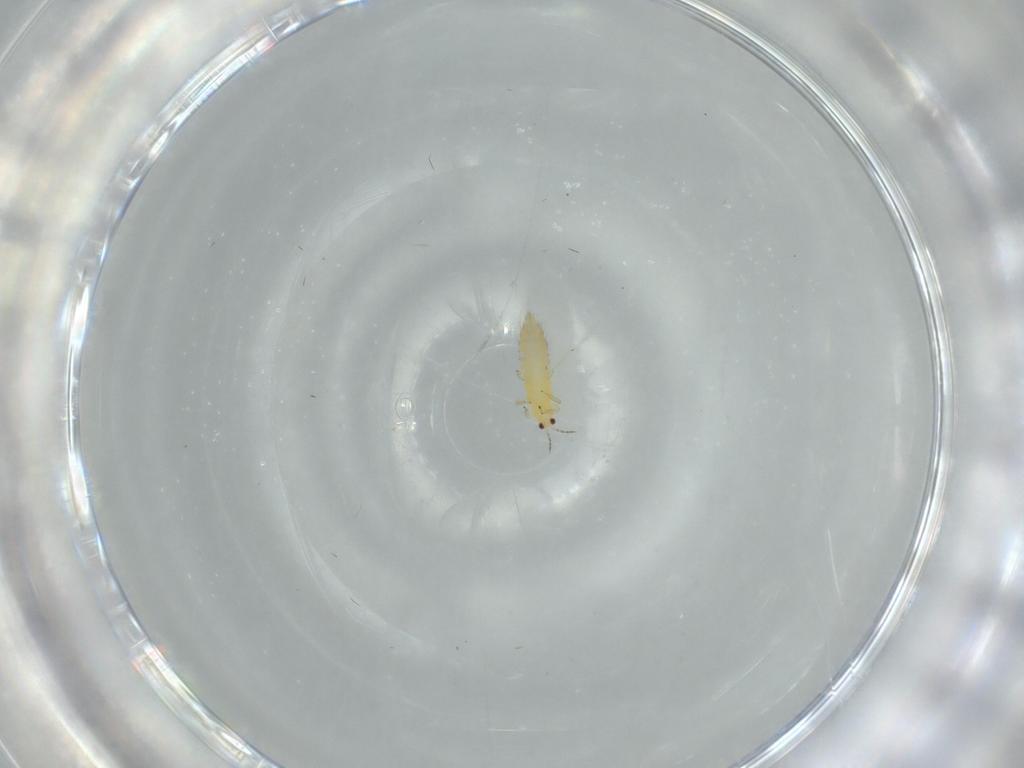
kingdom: Animalia
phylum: Arthropoda
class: Insecta
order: Thysanoptera
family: Thripidae
